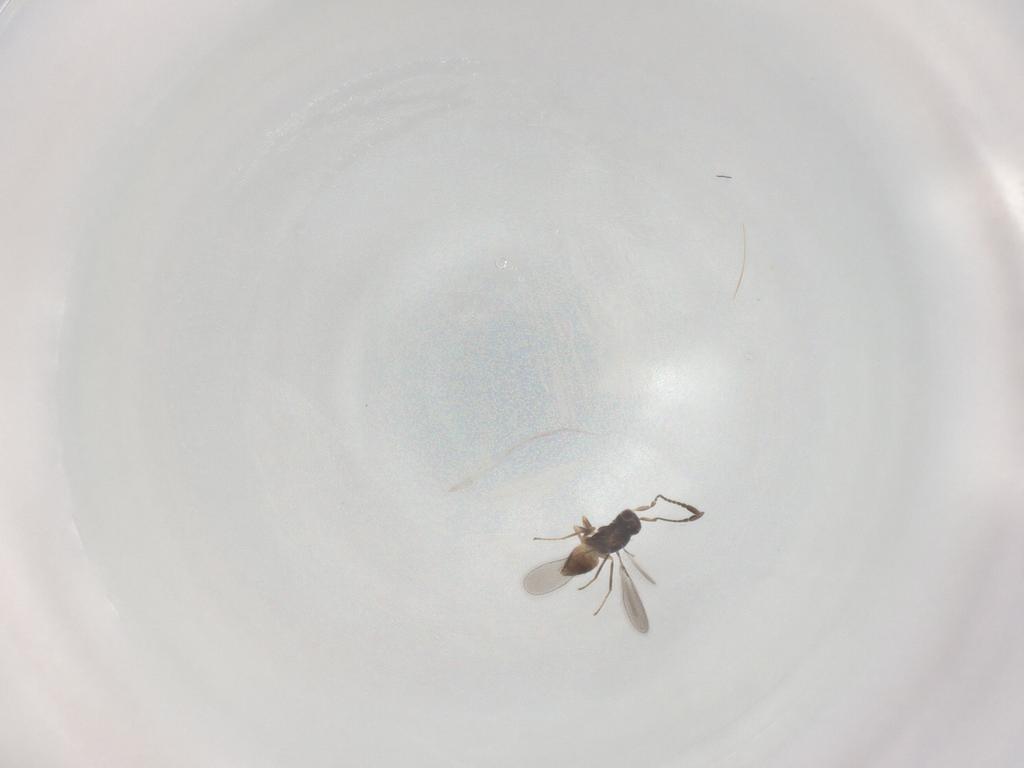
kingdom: Animalia
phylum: Arthropoda
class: Insecta
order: Hymenoptera
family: Mymaridae
